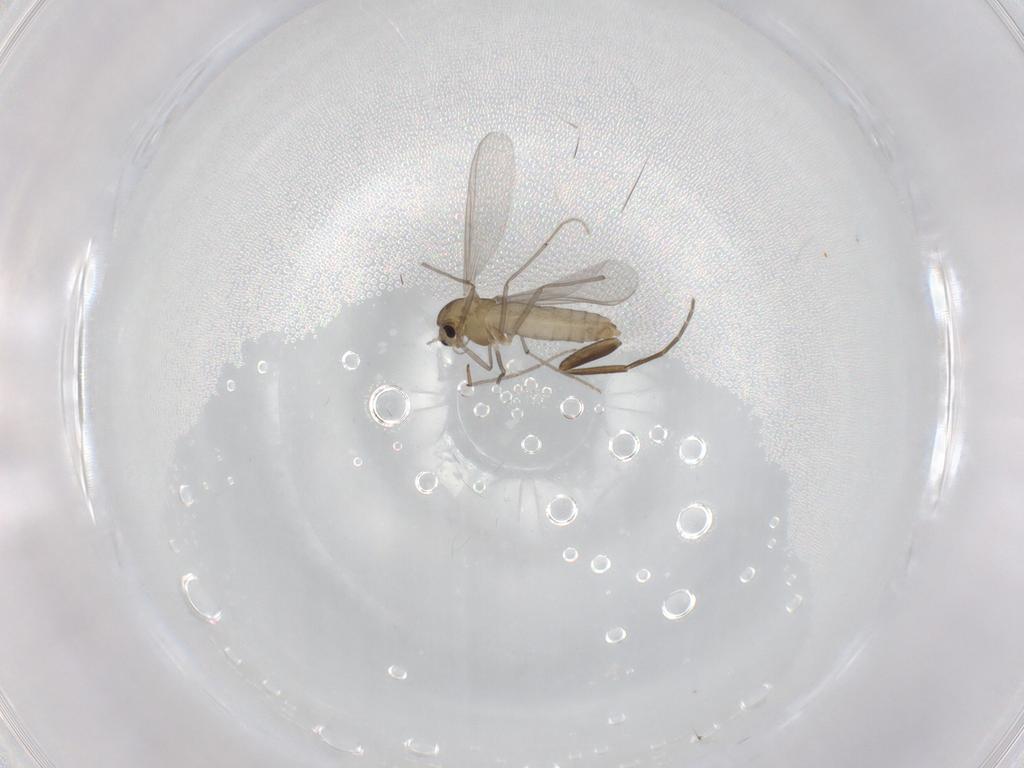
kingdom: Animalia
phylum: Arthropoda
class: Insecta
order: Diptera
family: Chironomidae
